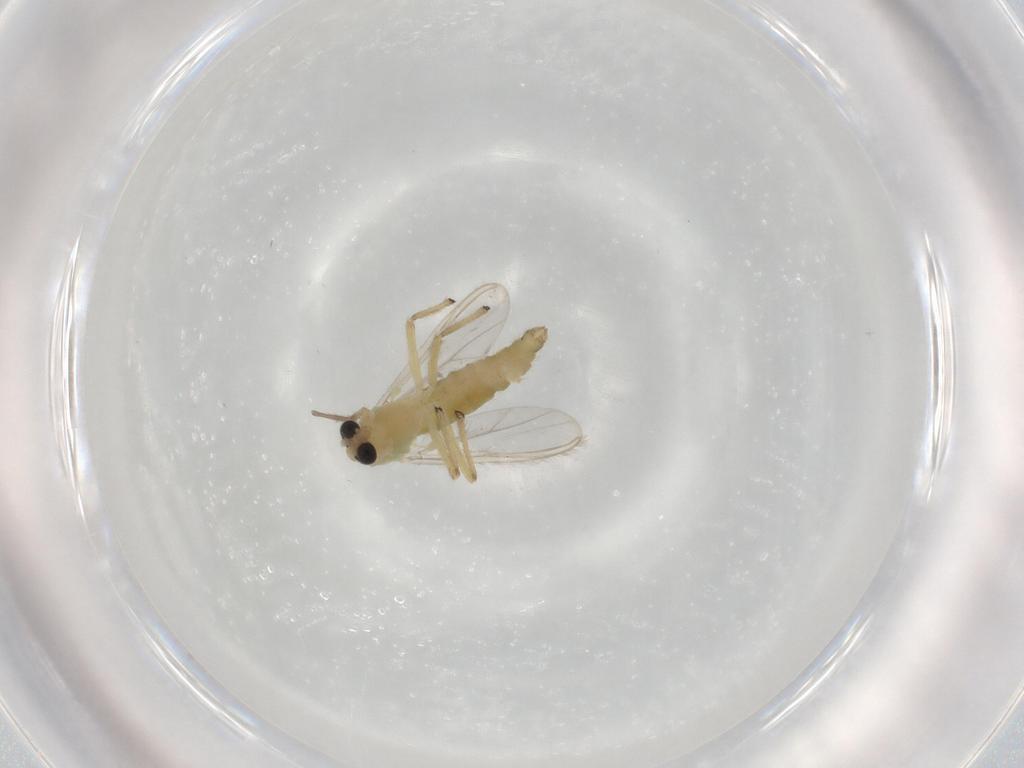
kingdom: Animalia
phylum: Arthropoda
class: Insecta
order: Diptera
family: Chironomidae
